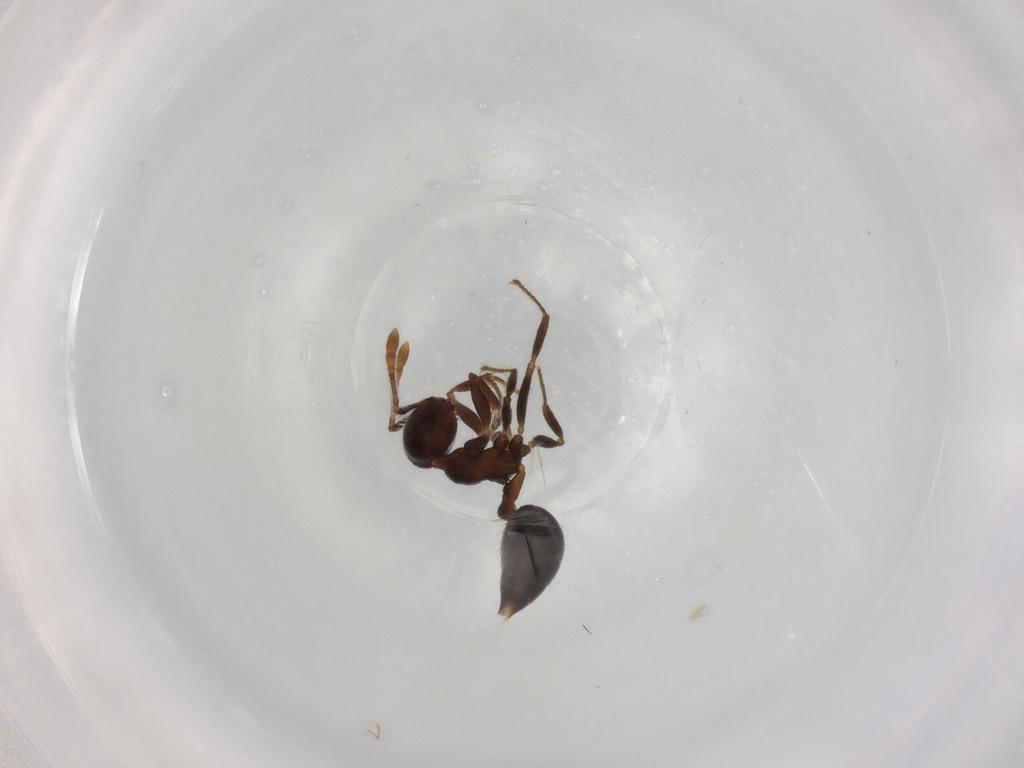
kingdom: Animalia
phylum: Arthropoda
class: Insecta
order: Hymenoptera
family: Formicidae
